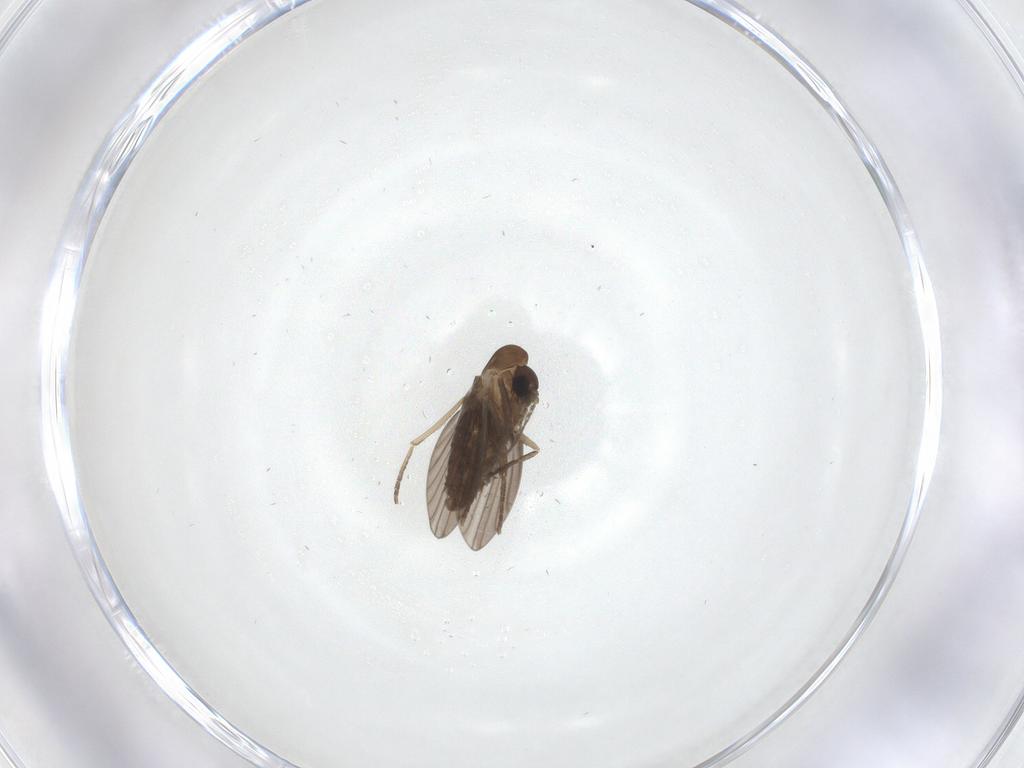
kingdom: Animalia
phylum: Arthropoda
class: Insecta
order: Diptera
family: Psychodidae
